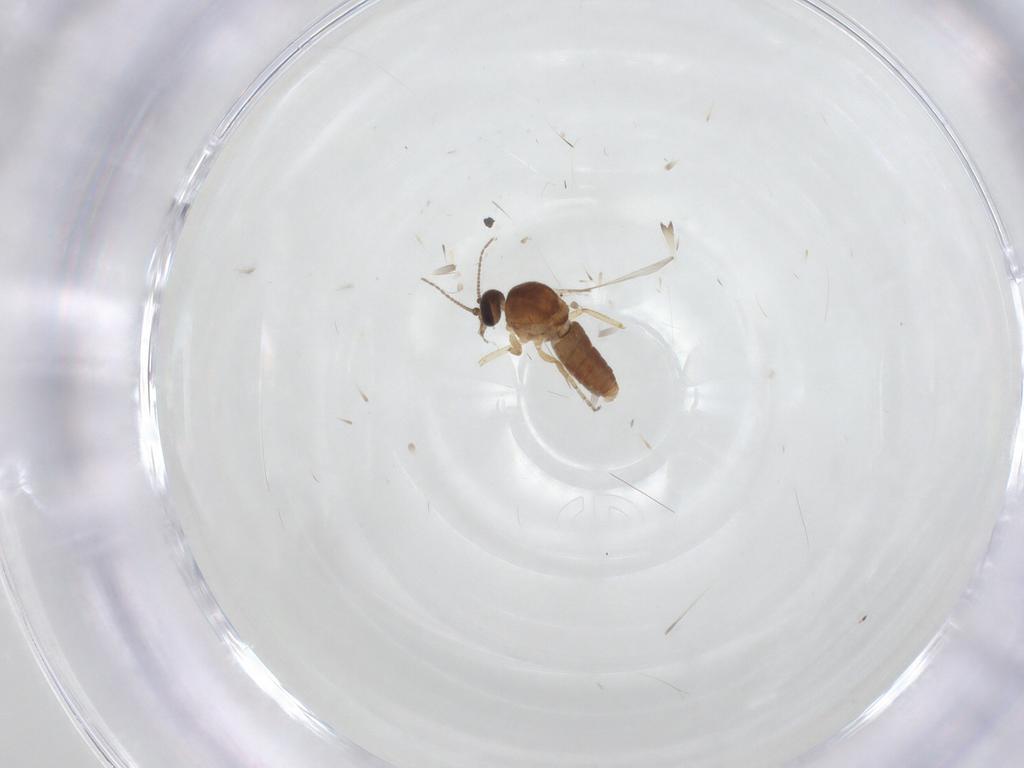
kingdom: Animalia
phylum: Arthropoda
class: Insecta
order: Diptera
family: Ceratopogonidae
